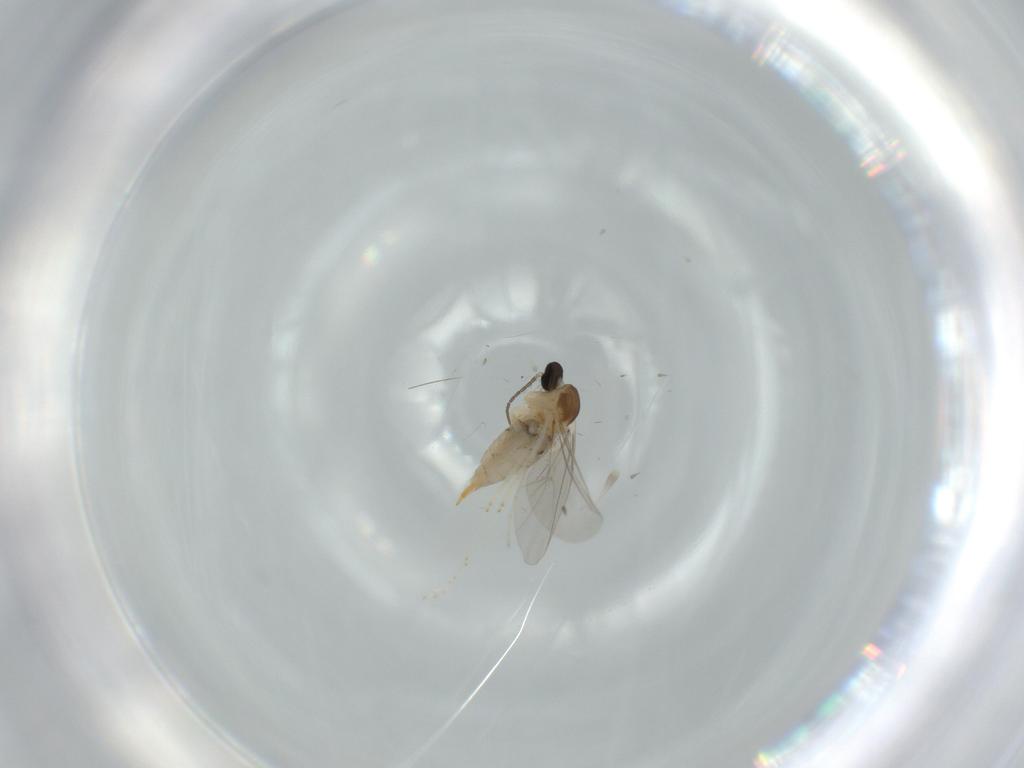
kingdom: Animalia
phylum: Arthropoda
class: Insecta
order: Diptera
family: Cecidomyiidae
